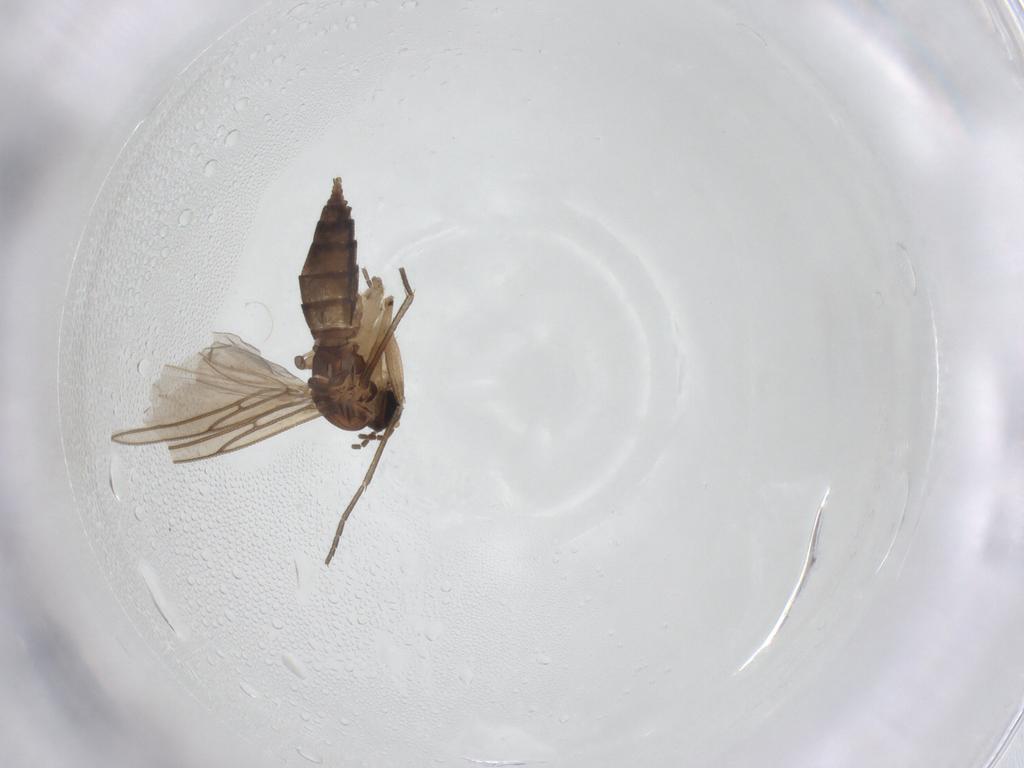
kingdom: Animalia
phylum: Arthropoda
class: Insecta
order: Diptera
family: Sciaridae
